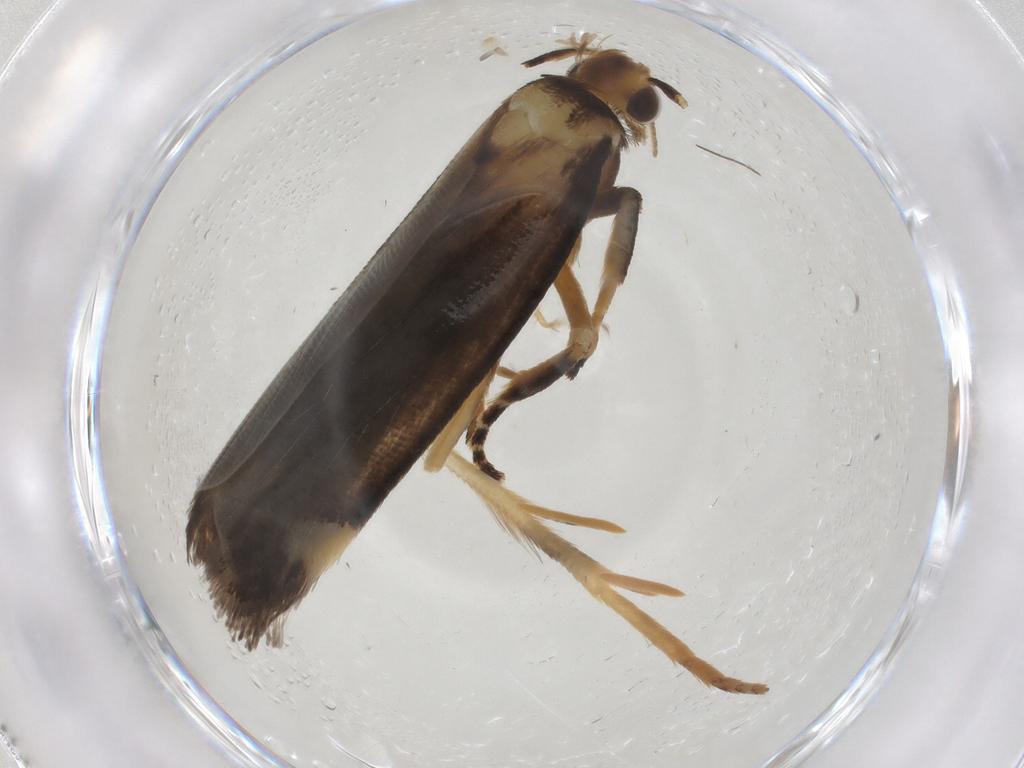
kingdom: Animalia
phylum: Arthropoda
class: Insecta
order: Lepidoptera
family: Gelechiidae
